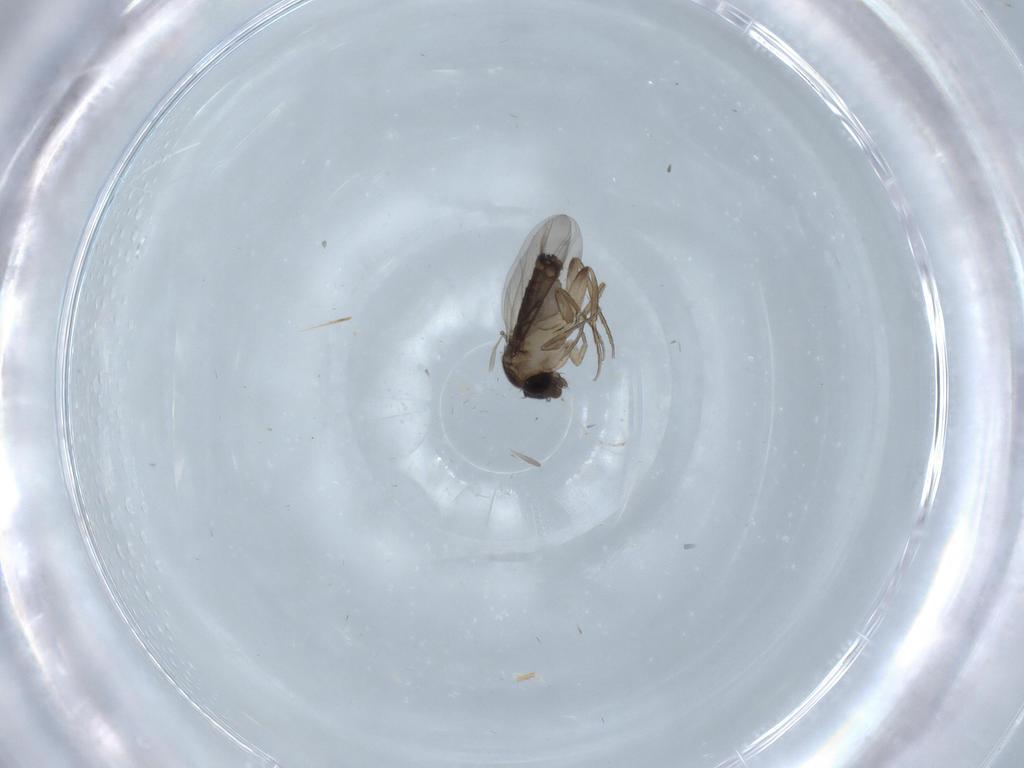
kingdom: Animalia
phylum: Arthropoda
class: Insecta
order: Diptera
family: Phoridae
